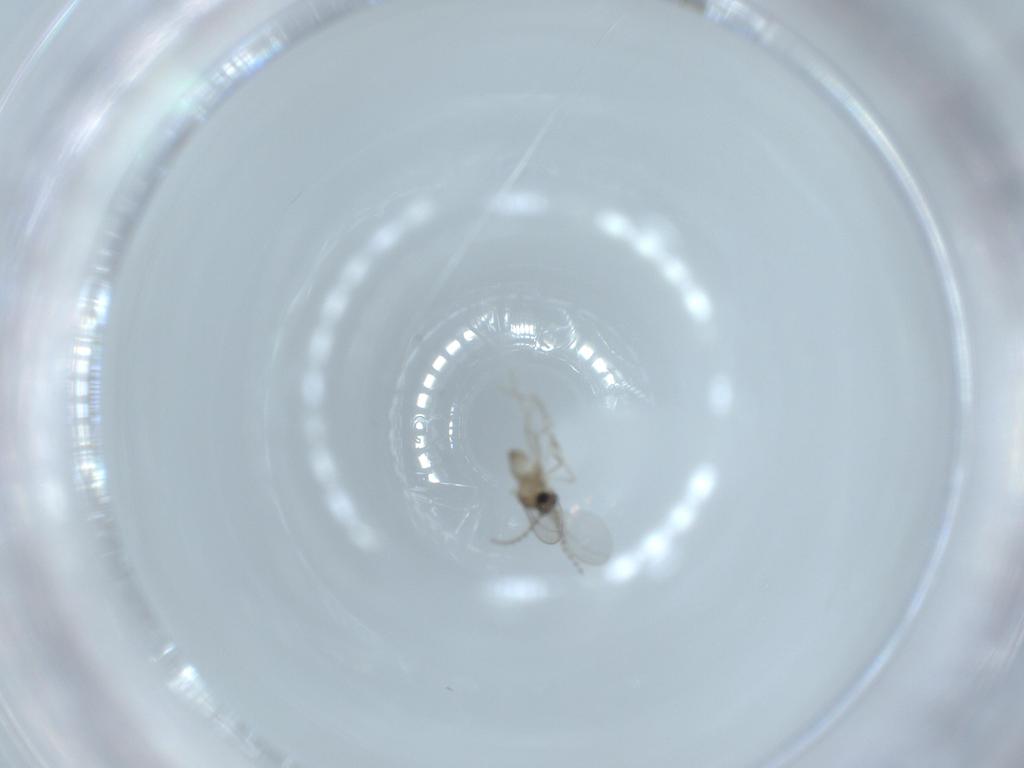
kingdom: Animalia
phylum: Arthropoda
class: Insecta
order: Diptera
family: Cecidomyiidae
